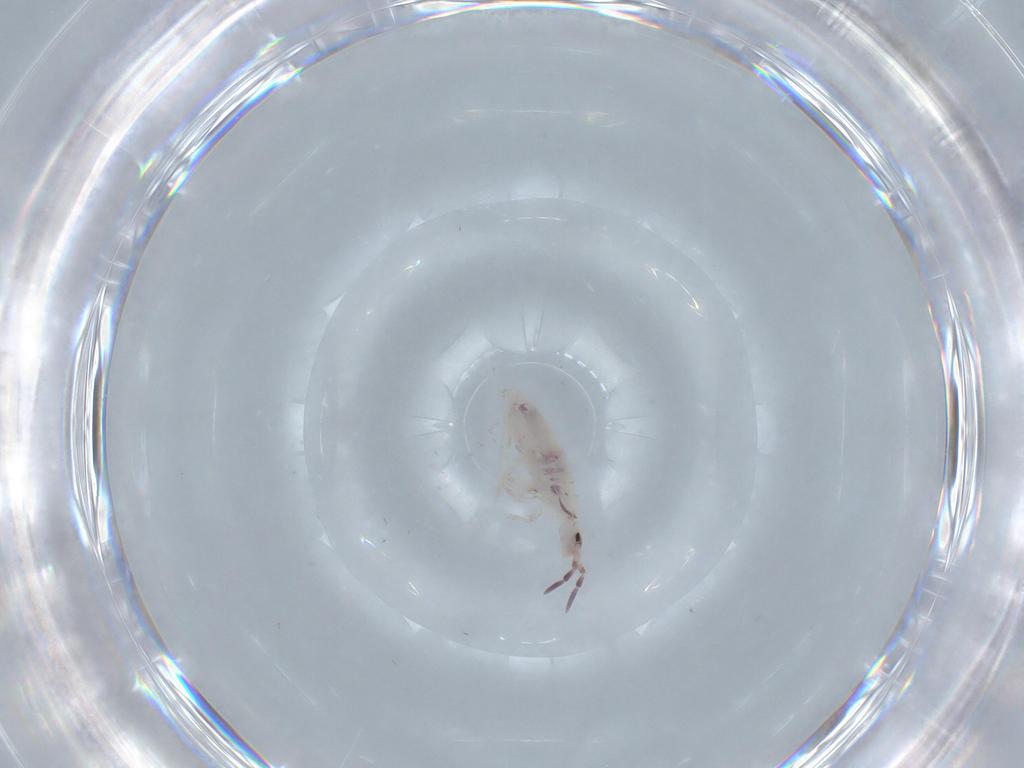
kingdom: Animalia
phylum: Arthropoda
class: Collembola
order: Poduromorpha
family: Hypogastruridae
